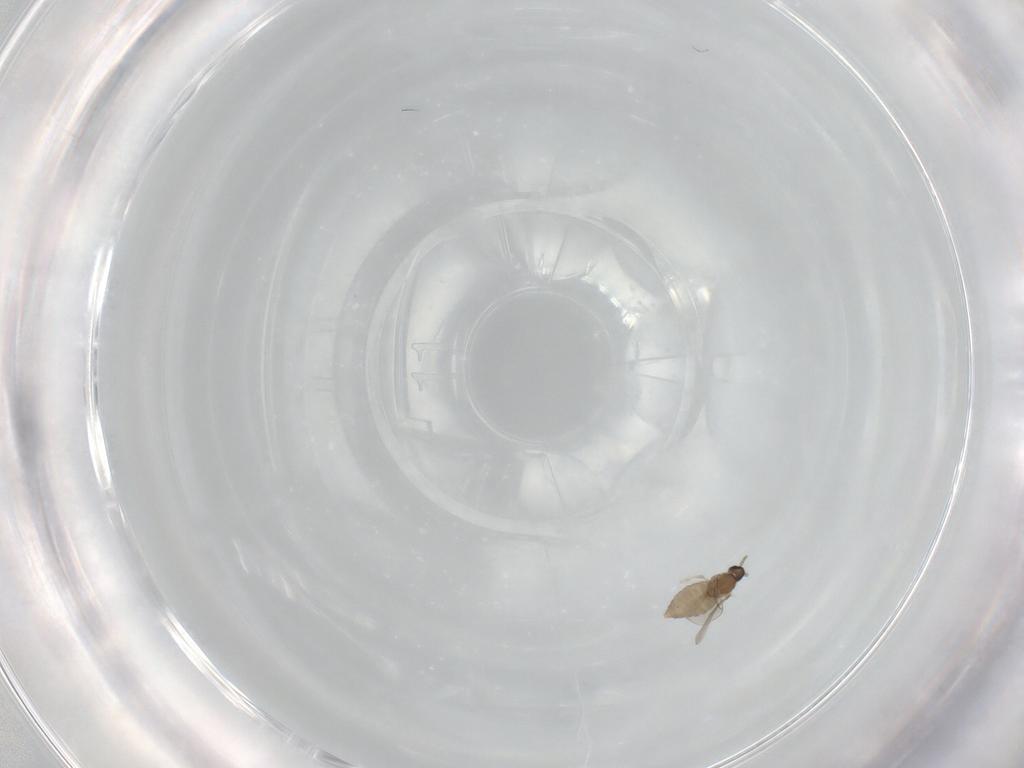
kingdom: Animalia
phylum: Arthropoda
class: Insecta
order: Diptera
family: Cecidomyiidae
